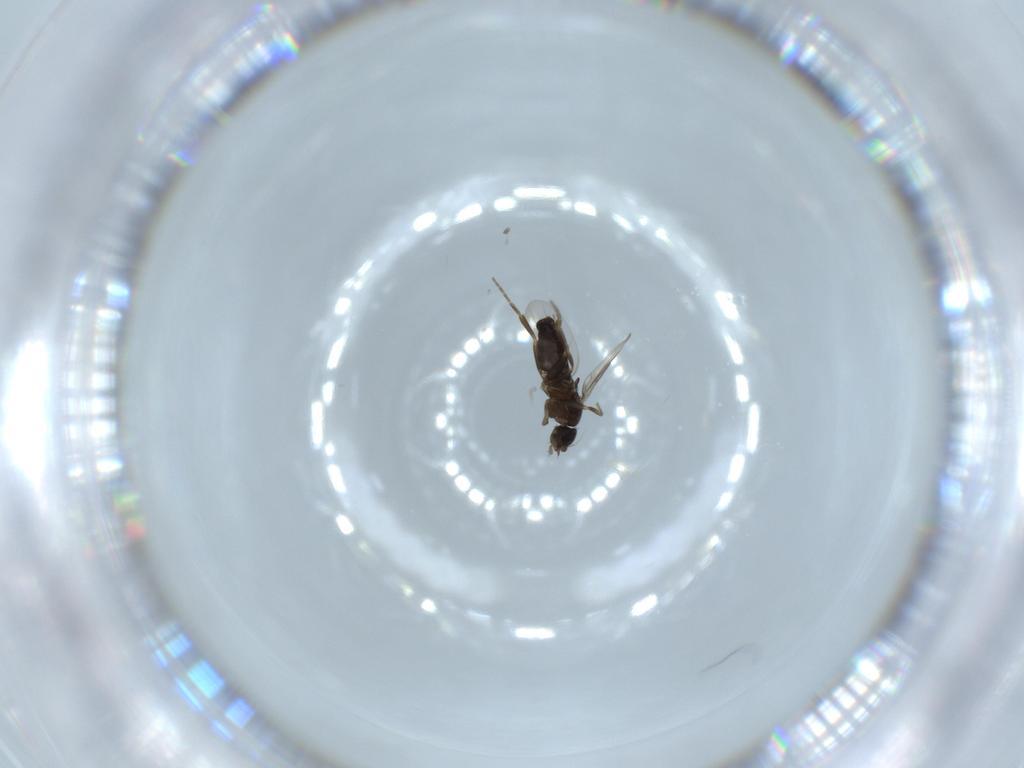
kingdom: Animalia
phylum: Arthropoda
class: Insecta
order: Diptera
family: Phoridae
